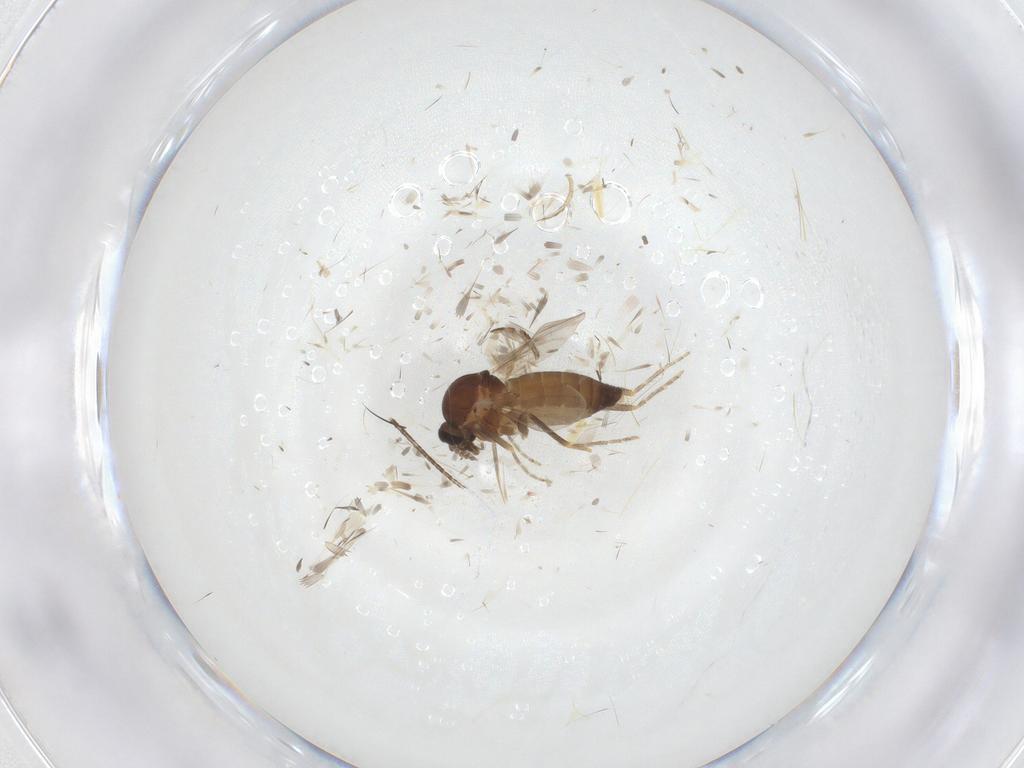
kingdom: Animalia
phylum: Arthropoda
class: Insecta
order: Diptera
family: Ceratopogonidae
